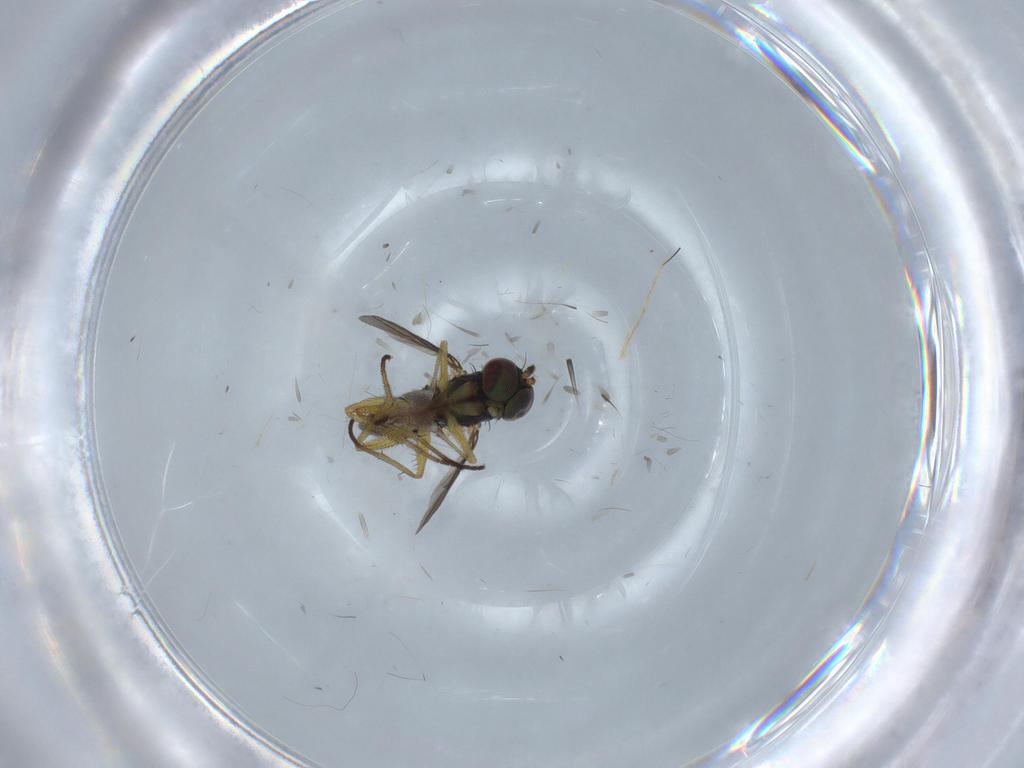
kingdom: Animalia
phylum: Arthropoda
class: Insecta
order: Diptera
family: Dolichopodidae
